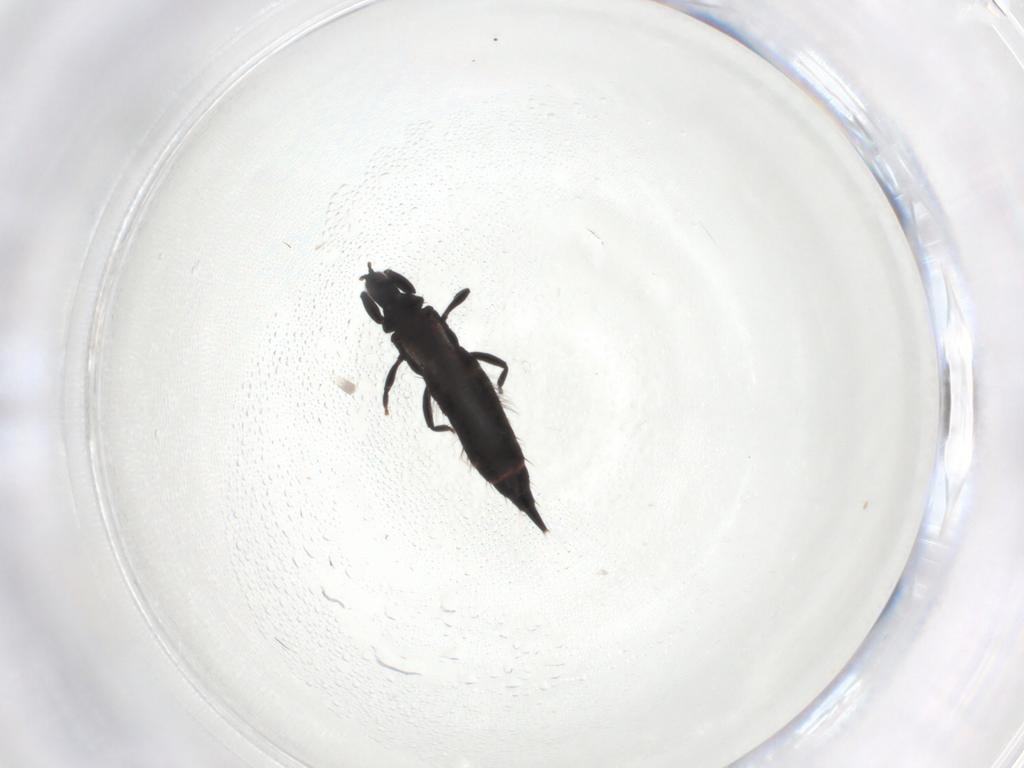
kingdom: Animalia
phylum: Arthropoda
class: Insecta
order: Thysanoptera
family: Phlaeothripidae
